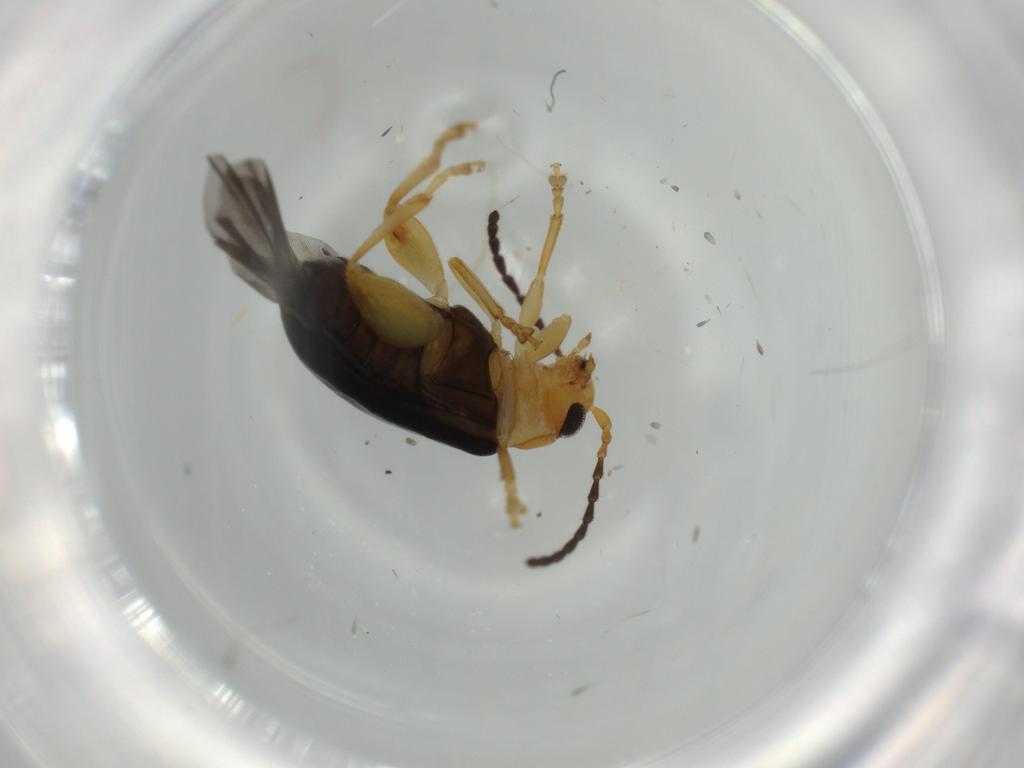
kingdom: Animalia
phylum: Arthropoda
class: Insecta
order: Coleoptera
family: Chrysomelidae
